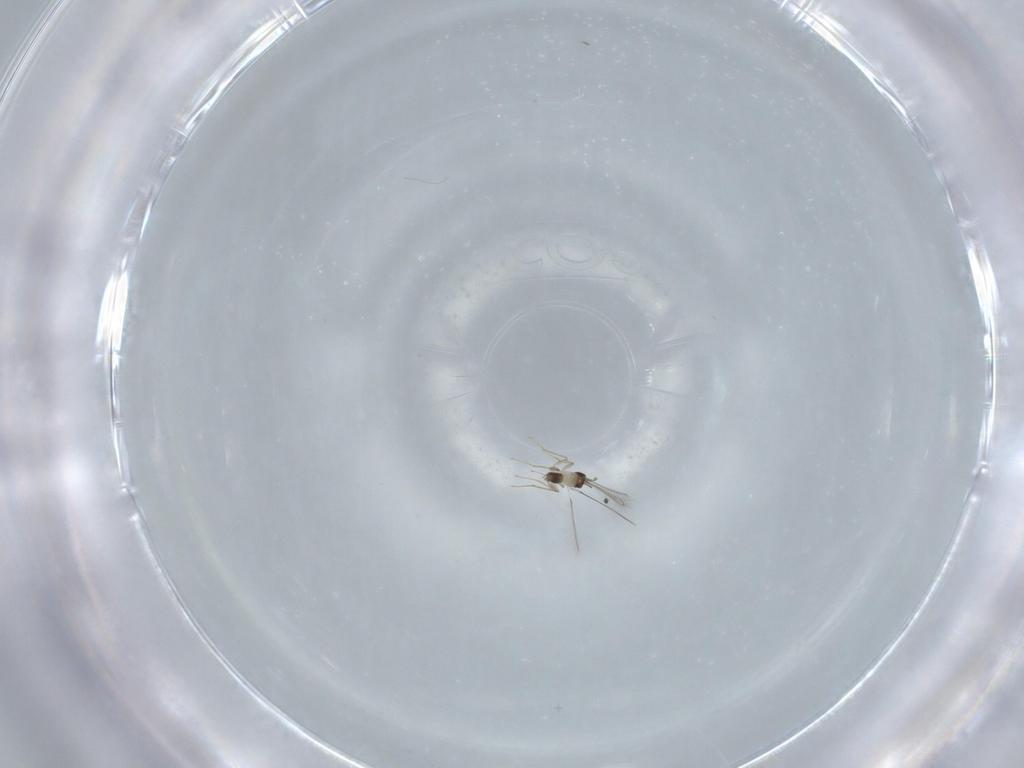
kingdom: Animalia
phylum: Arthropoda
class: Insecta
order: Hymenoptera
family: Mymaridae
